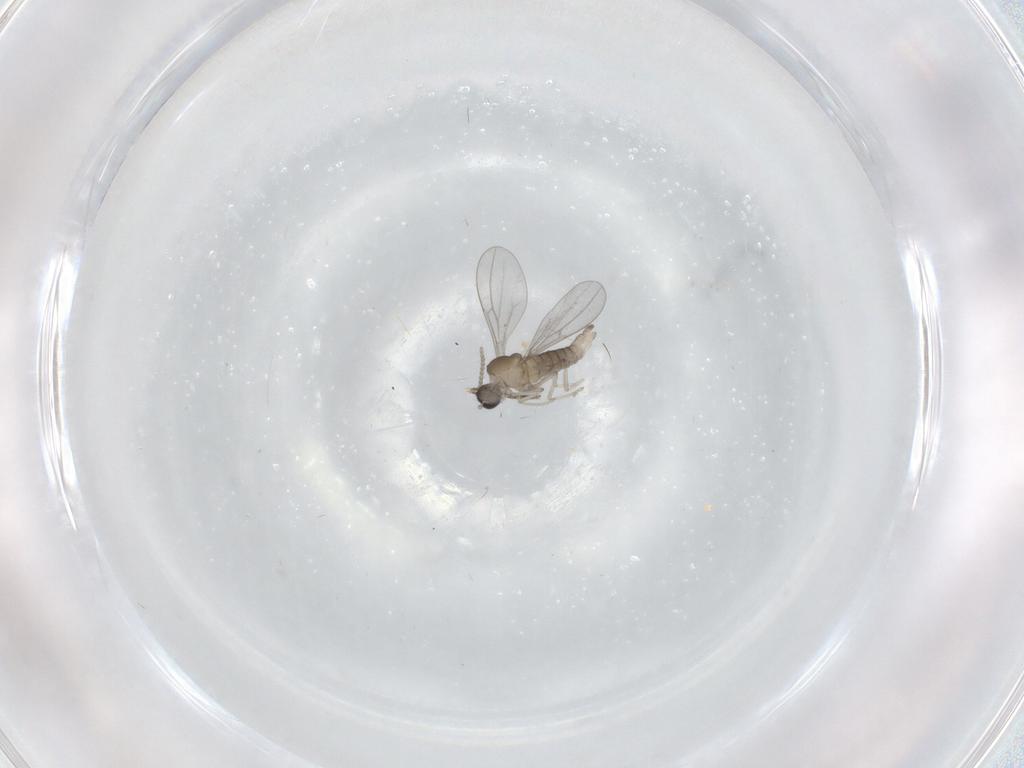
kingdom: Animalia
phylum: Arthropoda
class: Insecta
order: Diptera
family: Cecidomyiidae
